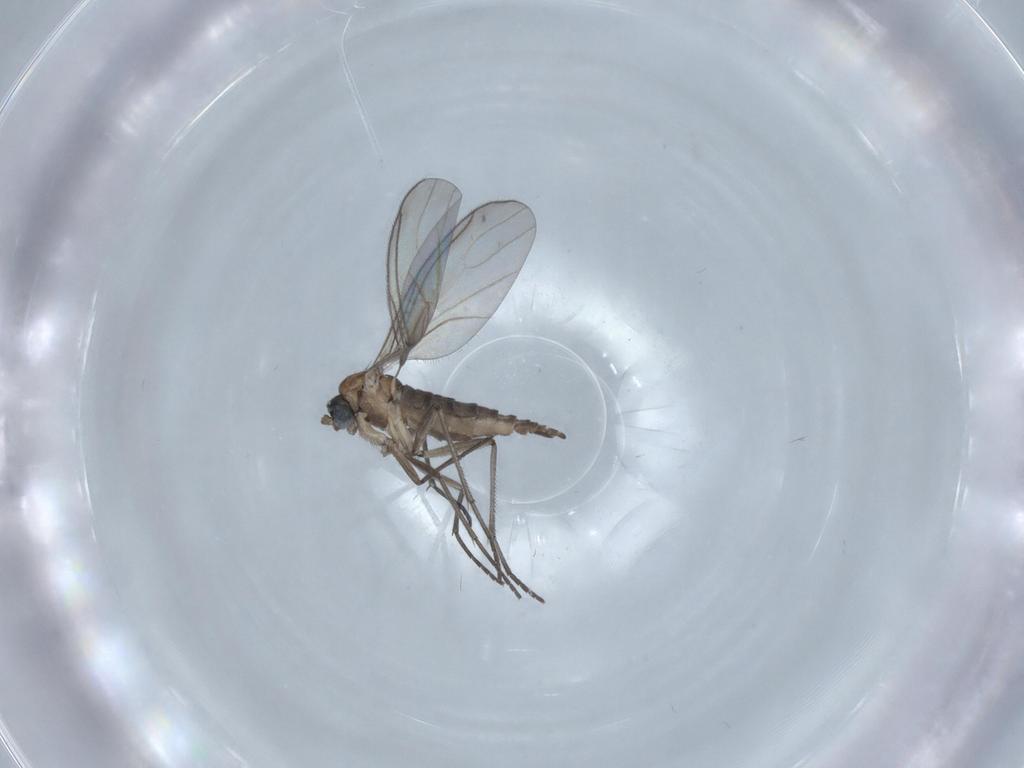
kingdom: Animalia
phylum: Arthropoda
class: Insecta
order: Diptera
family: Sciaridae
